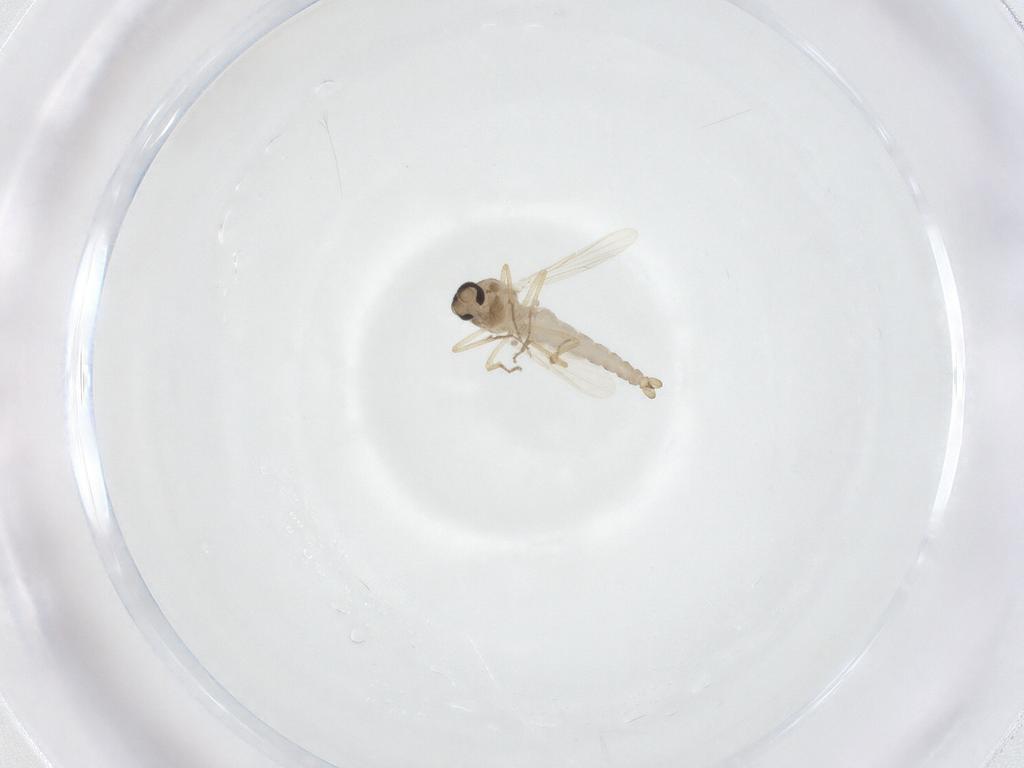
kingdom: Animalia
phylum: Arthropoda
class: Insecta
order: Diptera
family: Ceratopogonidae
